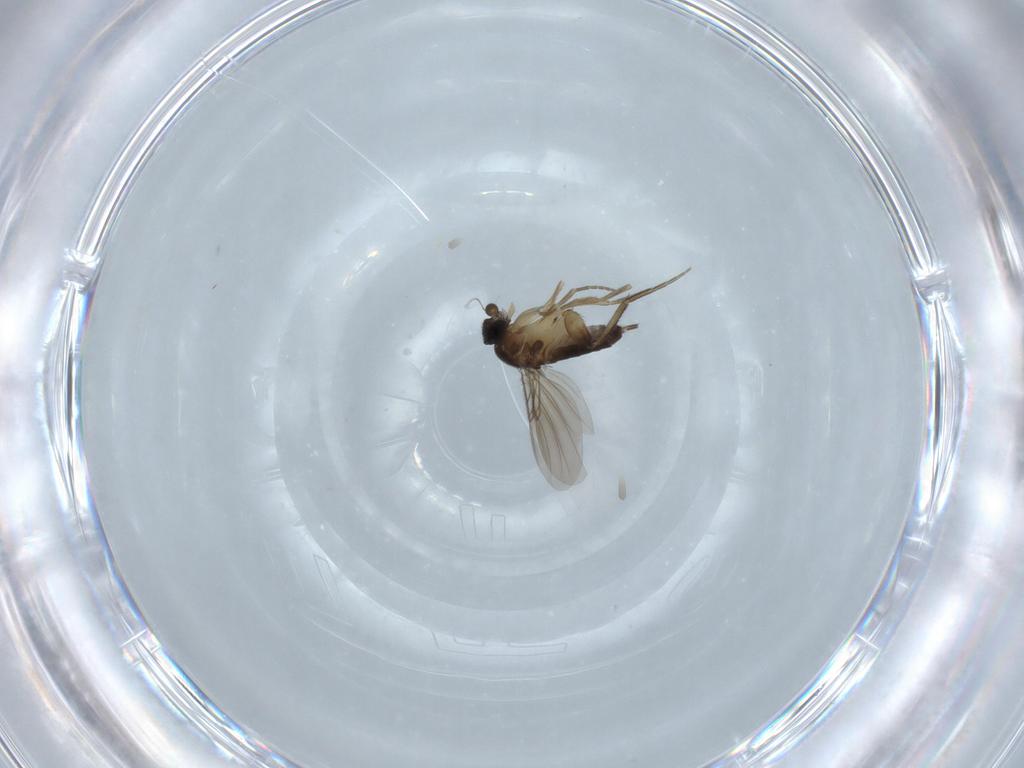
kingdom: Animalia
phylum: Arthropoda
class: Insecta
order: Diptera
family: Phoridae
